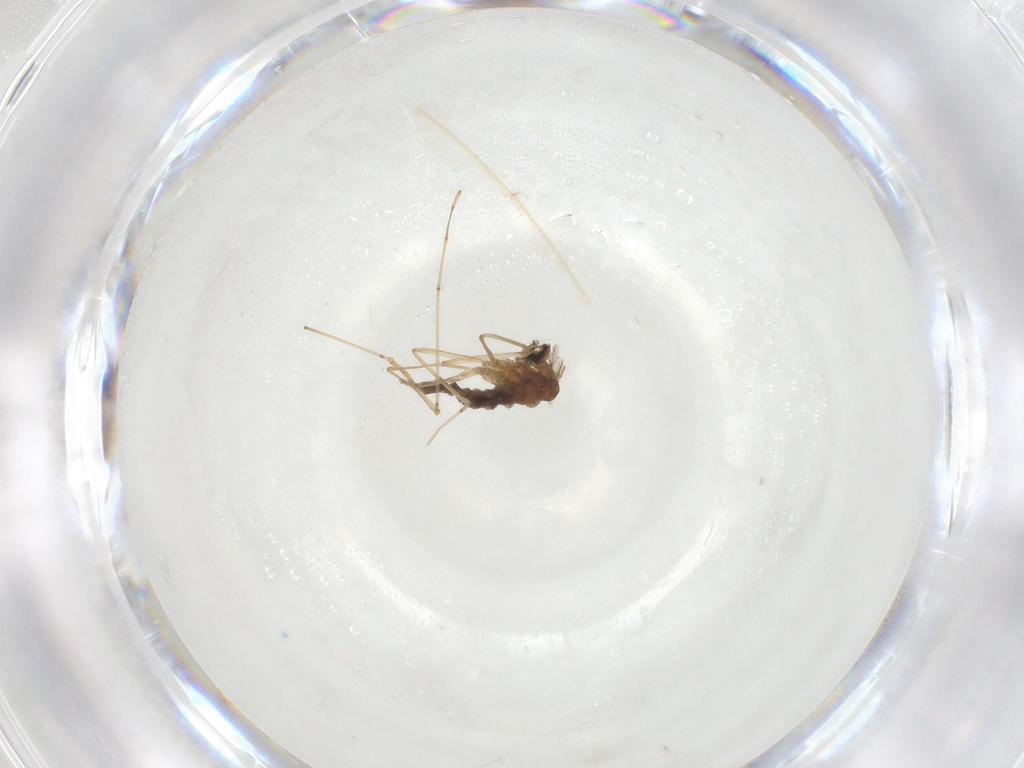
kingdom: Animalia
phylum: Arthropoda
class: Insecta
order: Diptera
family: Cecidomyiidae
